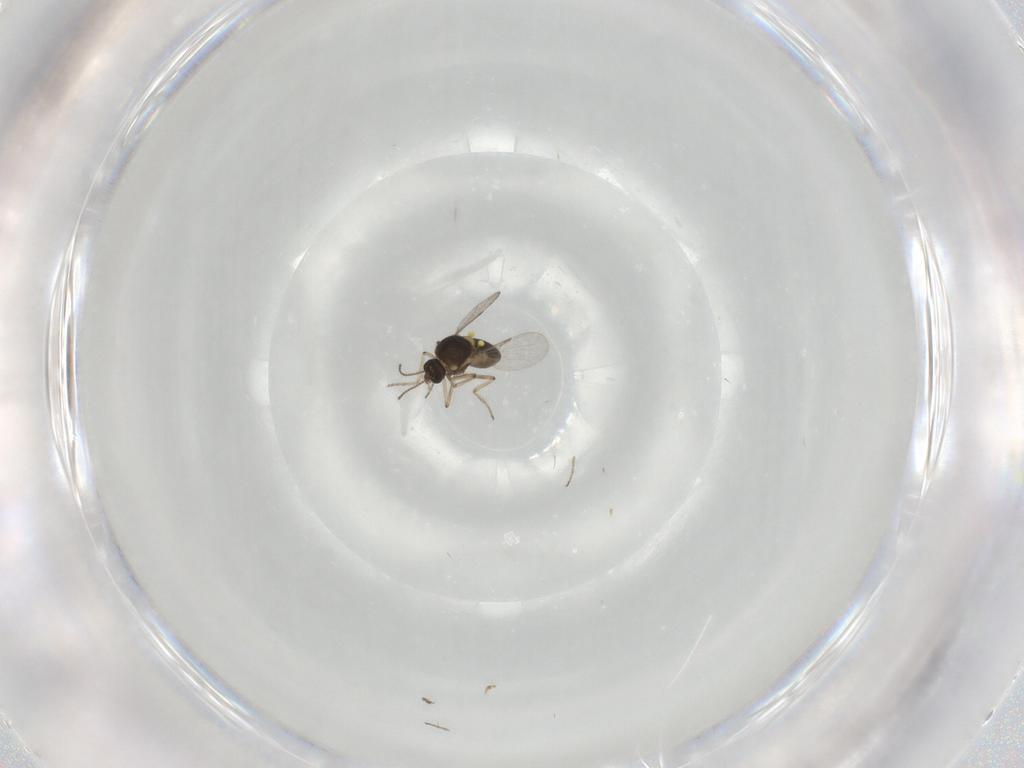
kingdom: Animalia
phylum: Arthropoda
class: Insecta
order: Diptera
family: Ceratopogonidae
